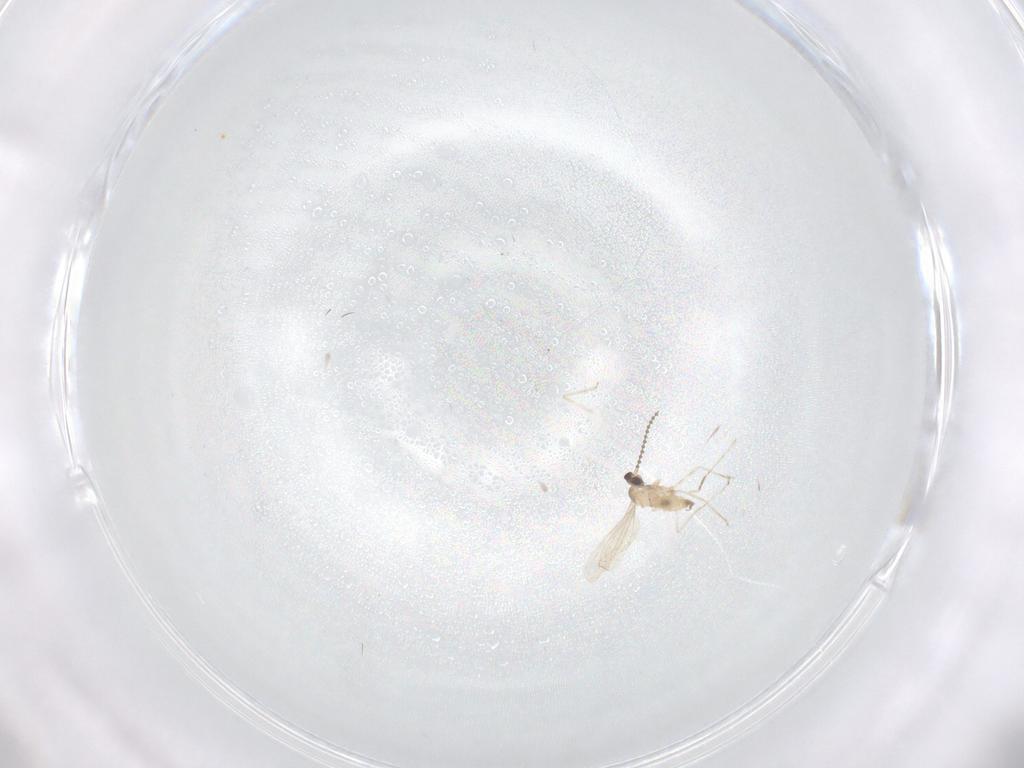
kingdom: Animalia
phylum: Arthropoda
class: Insecta
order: Diptera
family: Cecidomyiidae
